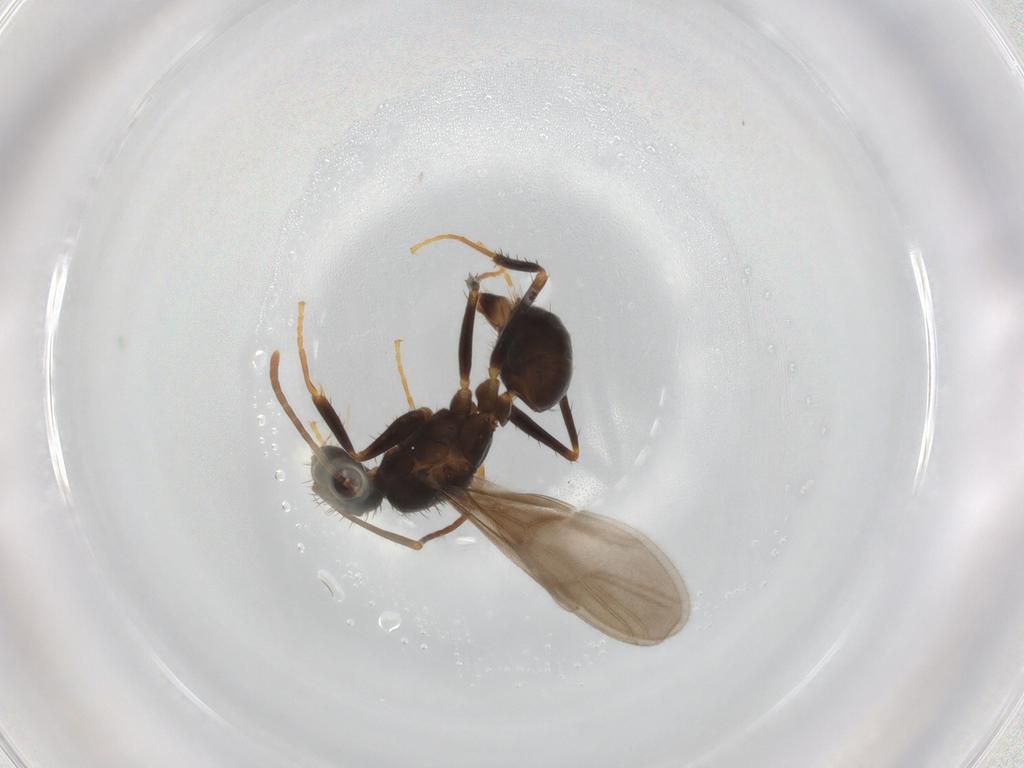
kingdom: Animalia
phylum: Arthropoda
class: Insecta
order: Hymenoptera
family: Formicidae
